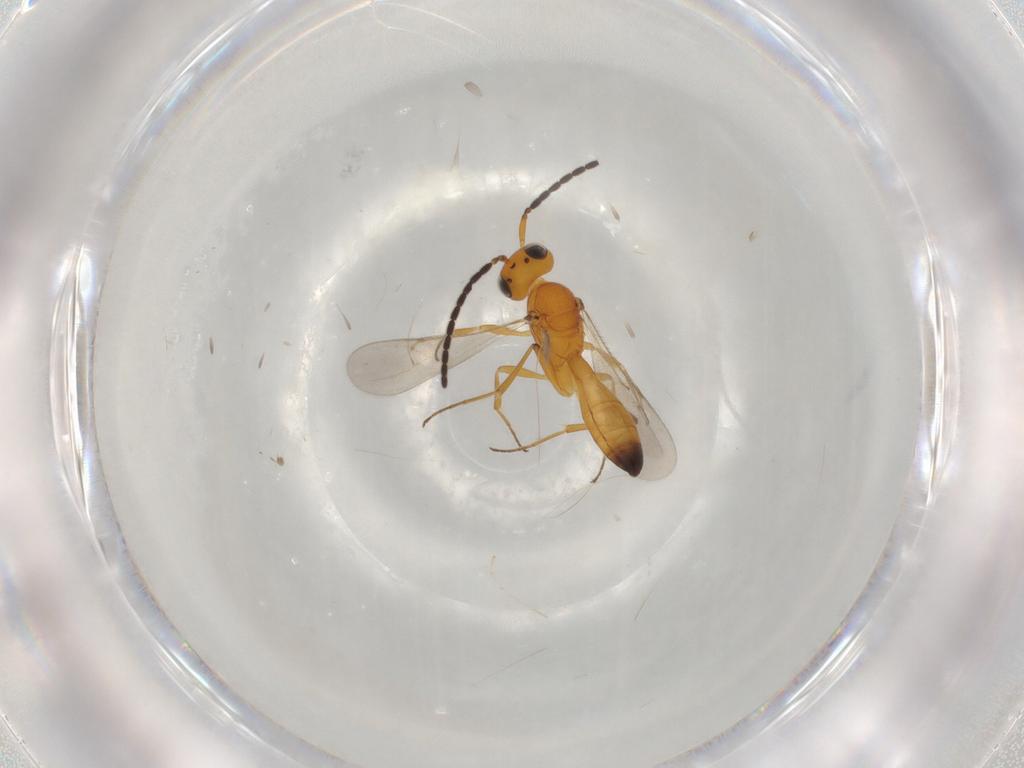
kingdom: Animalia
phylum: Arthropoda
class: Insecta
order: Hymenoptera
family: Scelionidae
